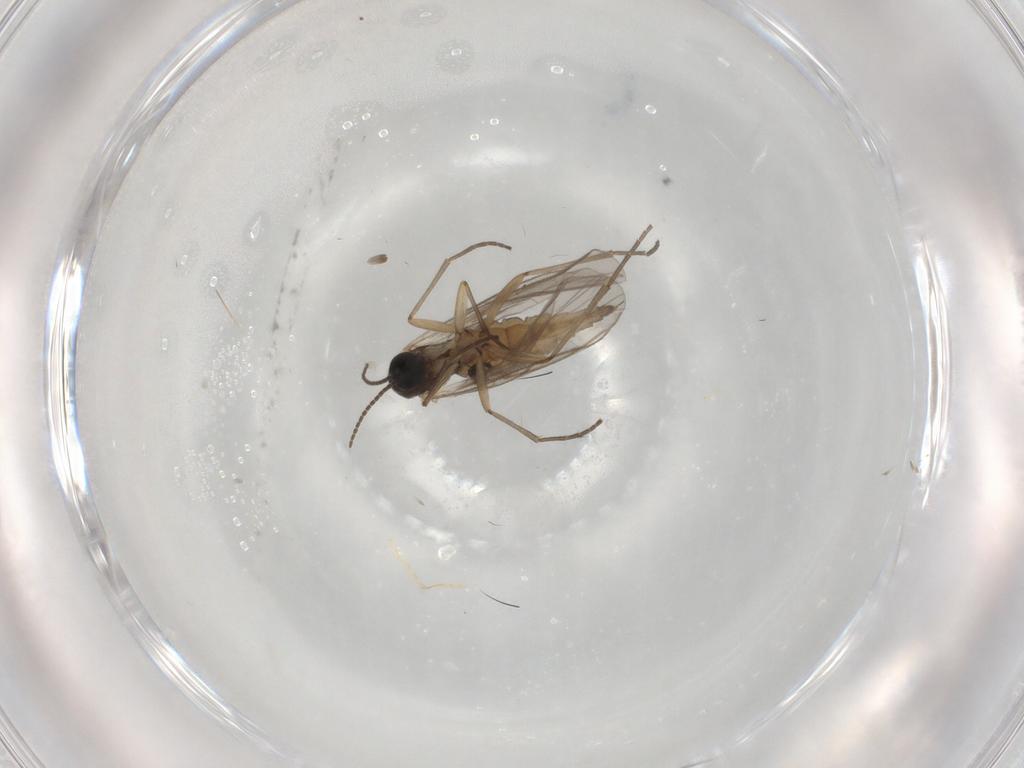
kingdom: Animalia
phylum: Arthropoda
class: Insecta
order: Diptera
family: Sciaridae
